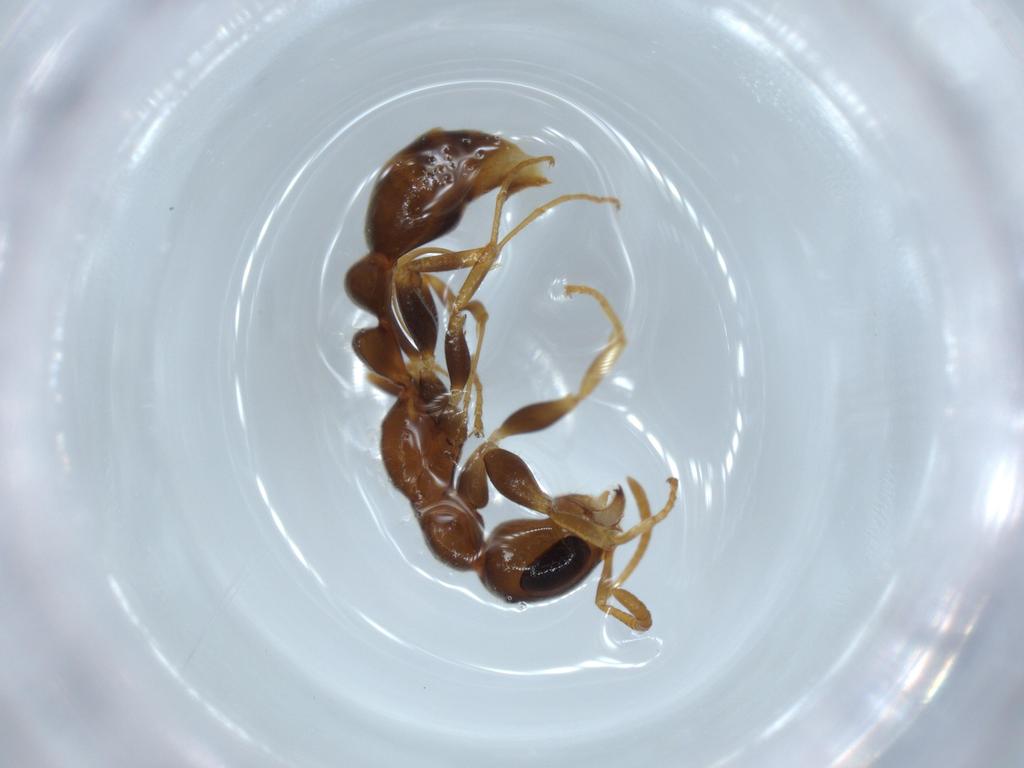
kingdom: Animalia
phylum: Arthropoda
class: Insecta
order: Hymenoptera
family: Formicidae
